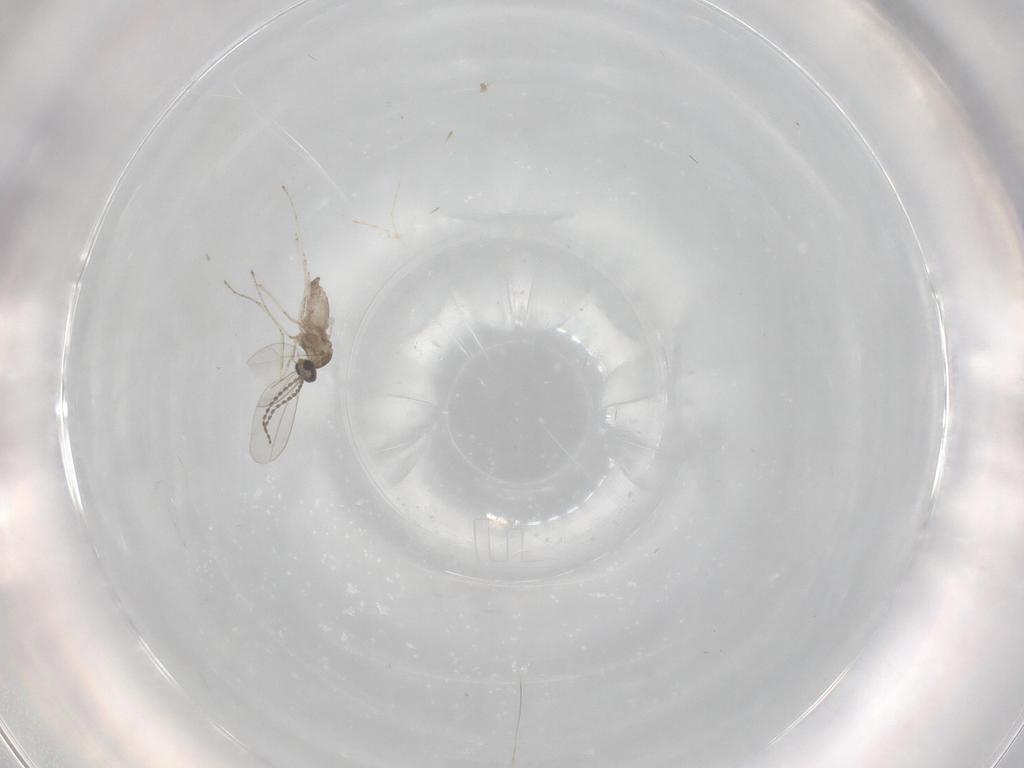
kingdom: Animalia
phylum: Arthropoda
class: Insecta
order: Diptera
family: Hybotidae
